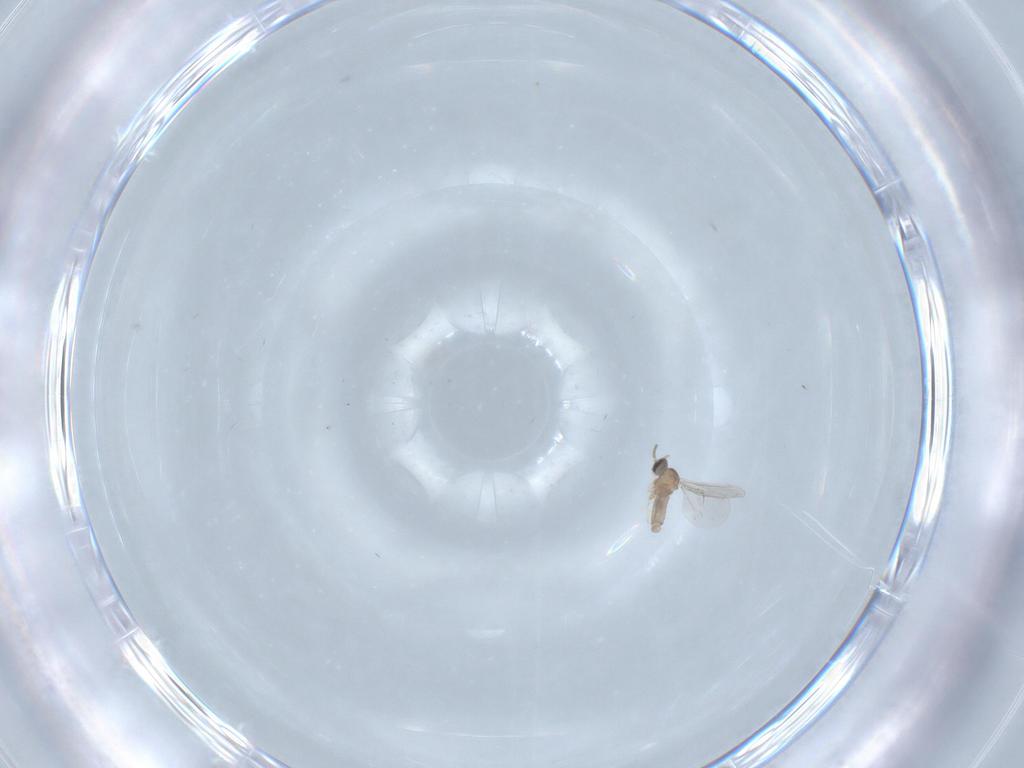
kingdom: Animalia
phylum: Arthropoda
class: Insecta
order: Diptera
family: Cecidomyiidae
